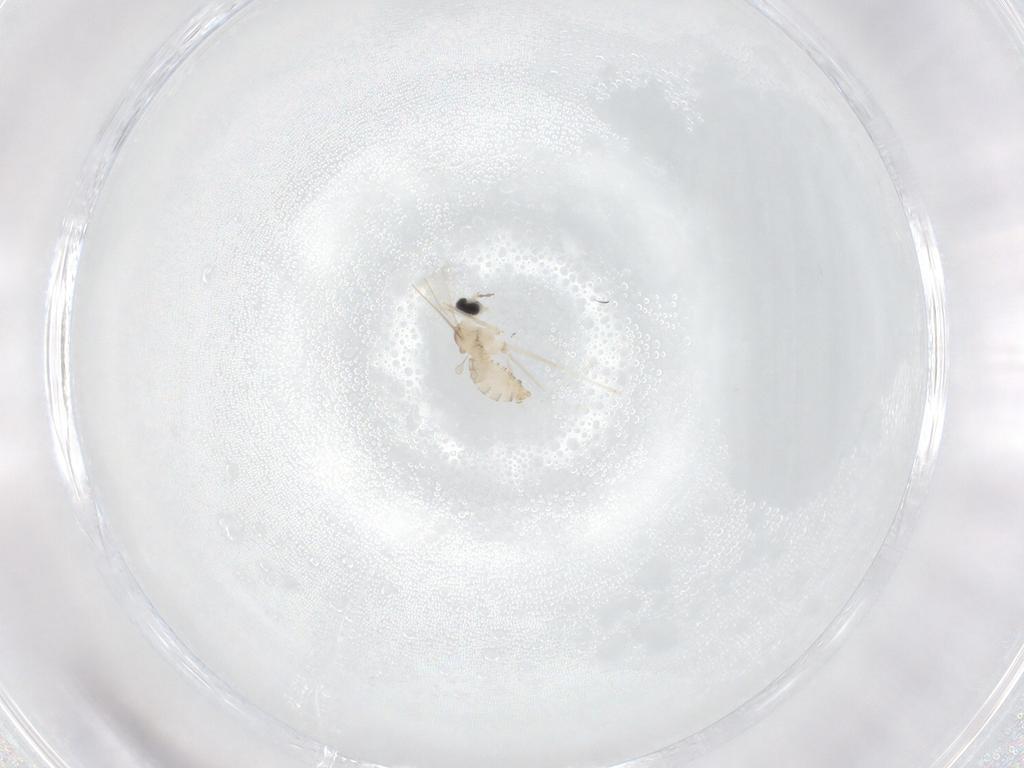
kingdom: Animalia
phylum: Arthropoda
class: Insecta
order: Diptera
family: Cecidomyiidae
